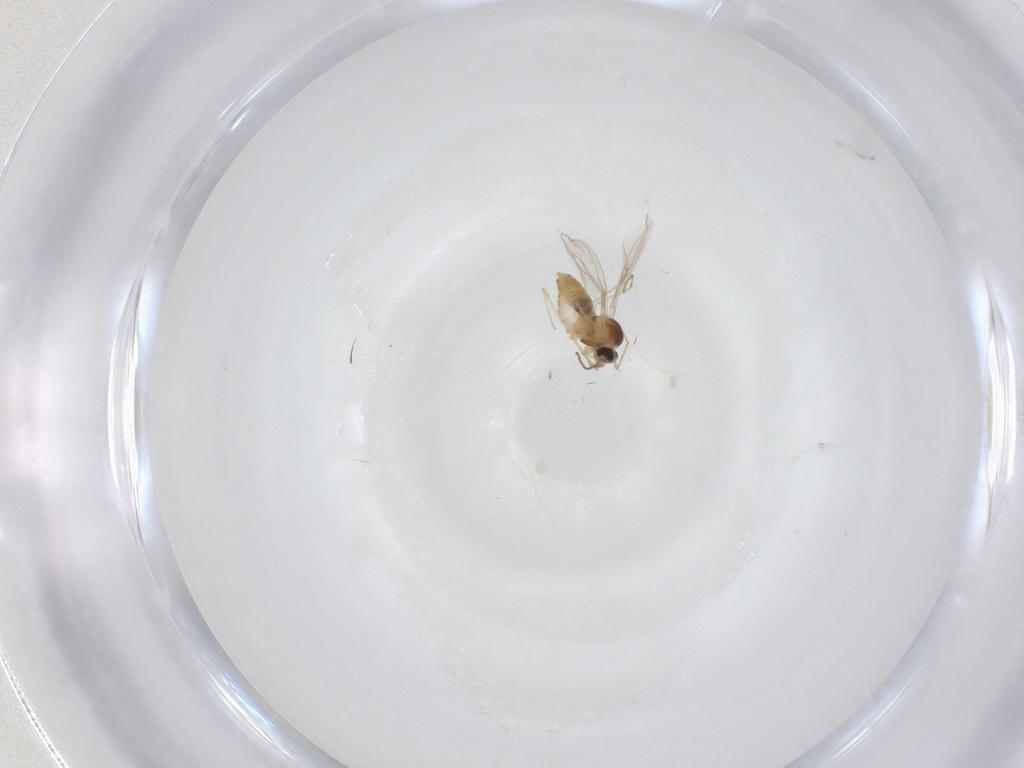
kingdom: Animalia
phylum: Arthropoda
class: Insecta
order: Diptera
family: Cecidomyiidae
